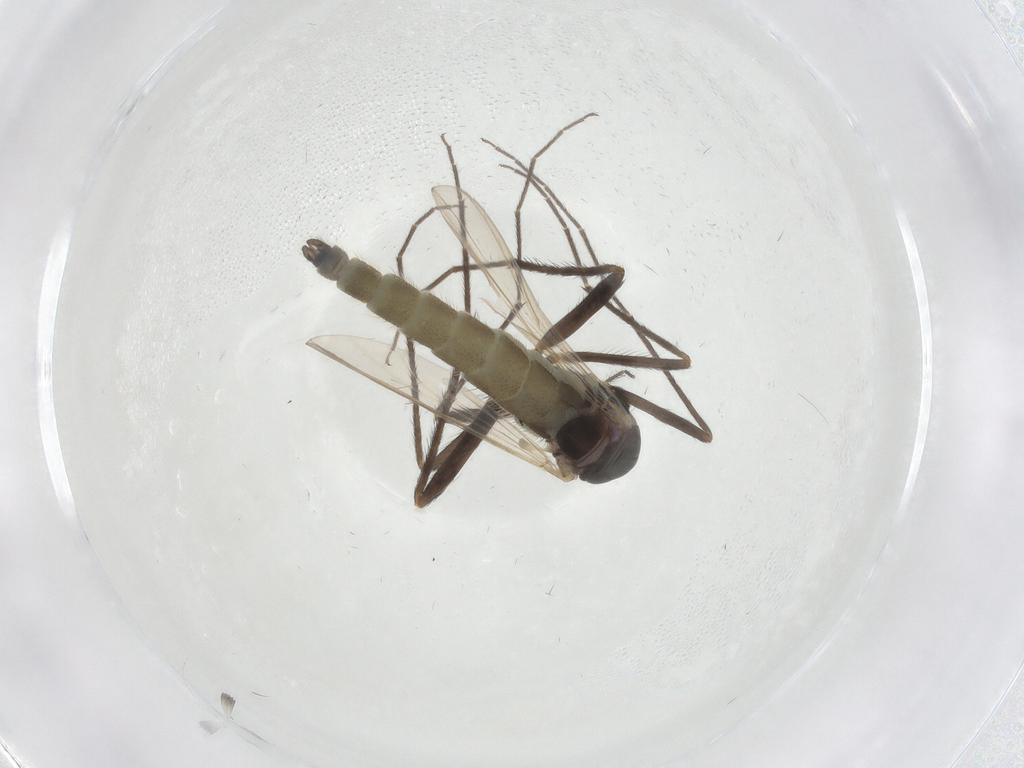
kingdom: Animalia
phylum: Arthropoda
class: Insecta
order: Diptera
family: Chironomidae
